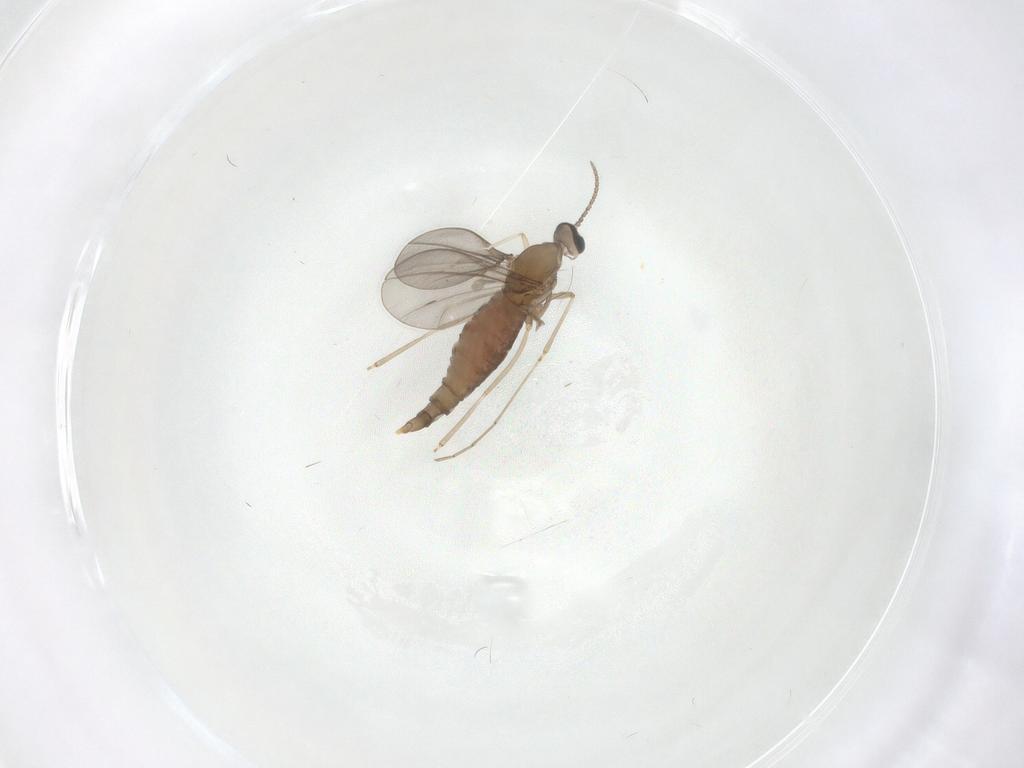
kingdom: Animalia
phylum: Arthropoda
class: Insecta
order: Diptera
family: Cecidomyiidae
